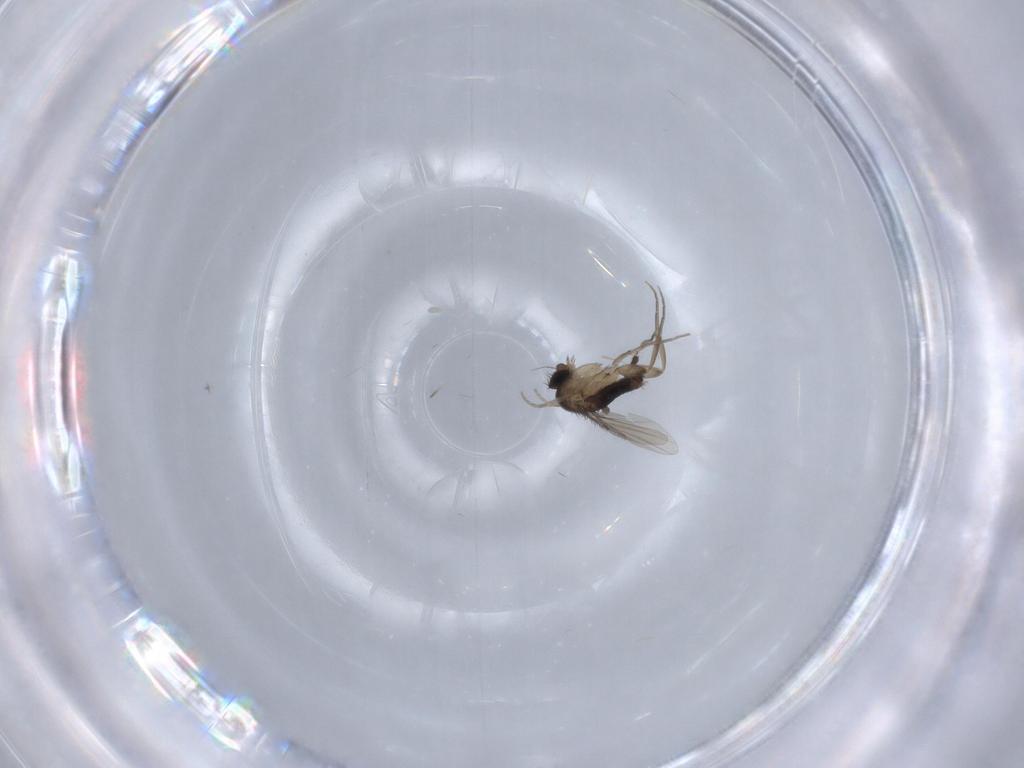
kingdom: Animalia
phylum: Arthropoda
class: Insecta
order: Diptera
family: Phoridae
